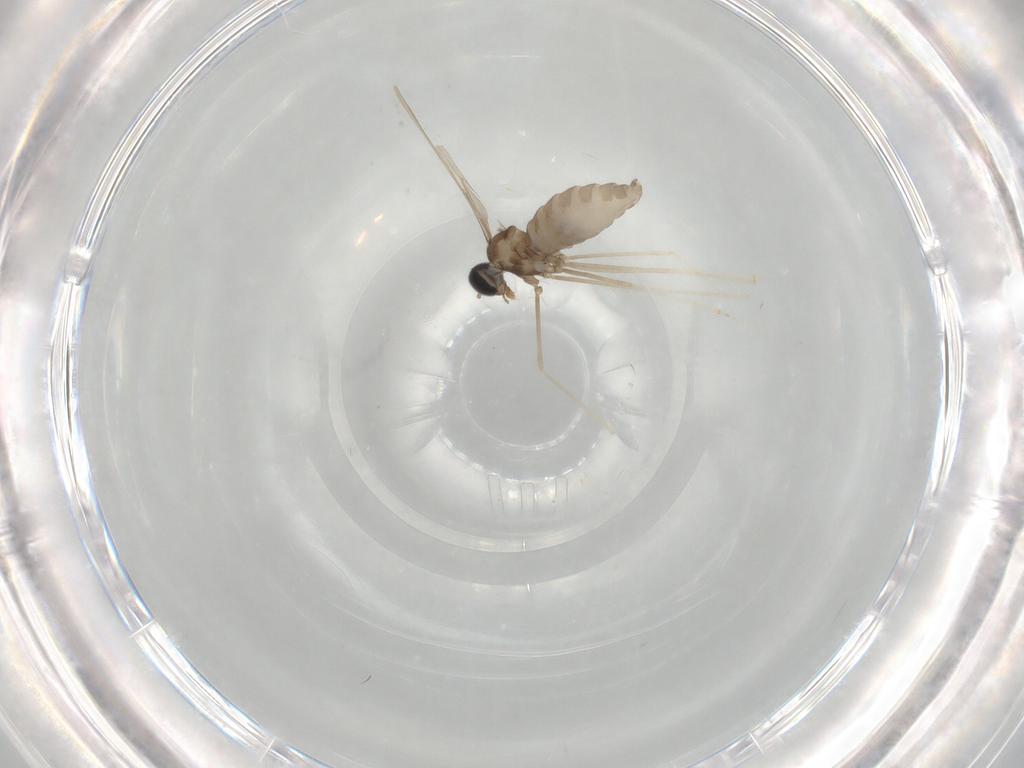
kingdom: Animalia
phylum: Arthropoda
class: Insecta
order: Diptera
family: Cecidomyiidae
